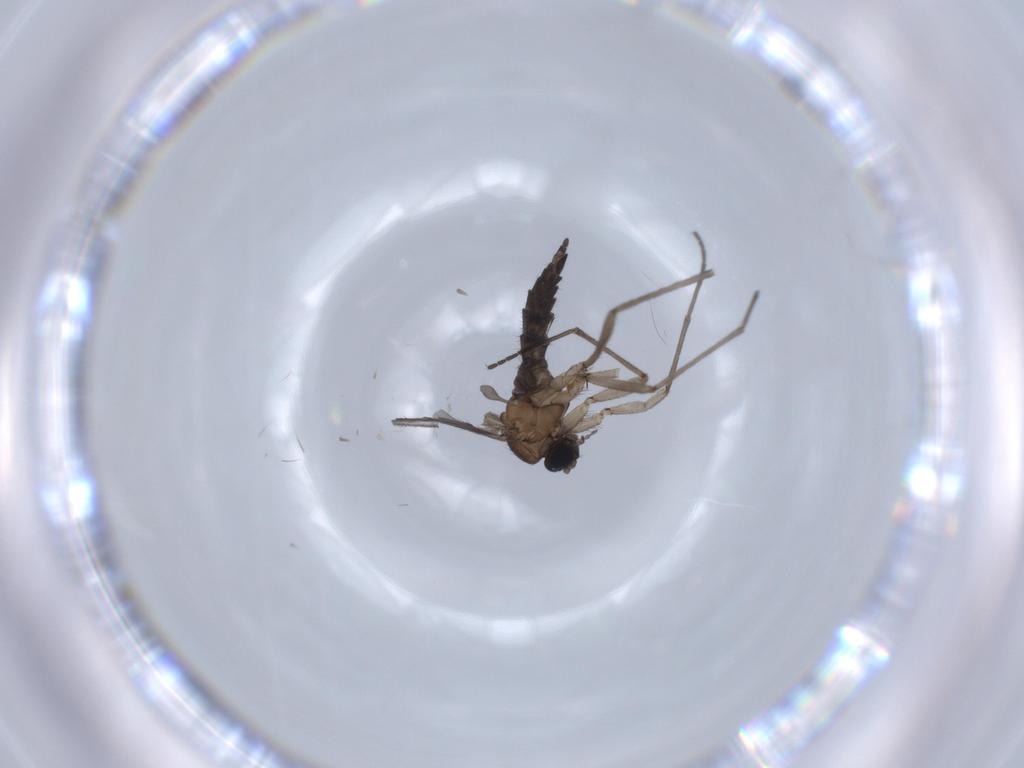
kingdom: Animalia
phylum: Arthropoda
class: Insecta
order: Diptera
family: Sciaridae
